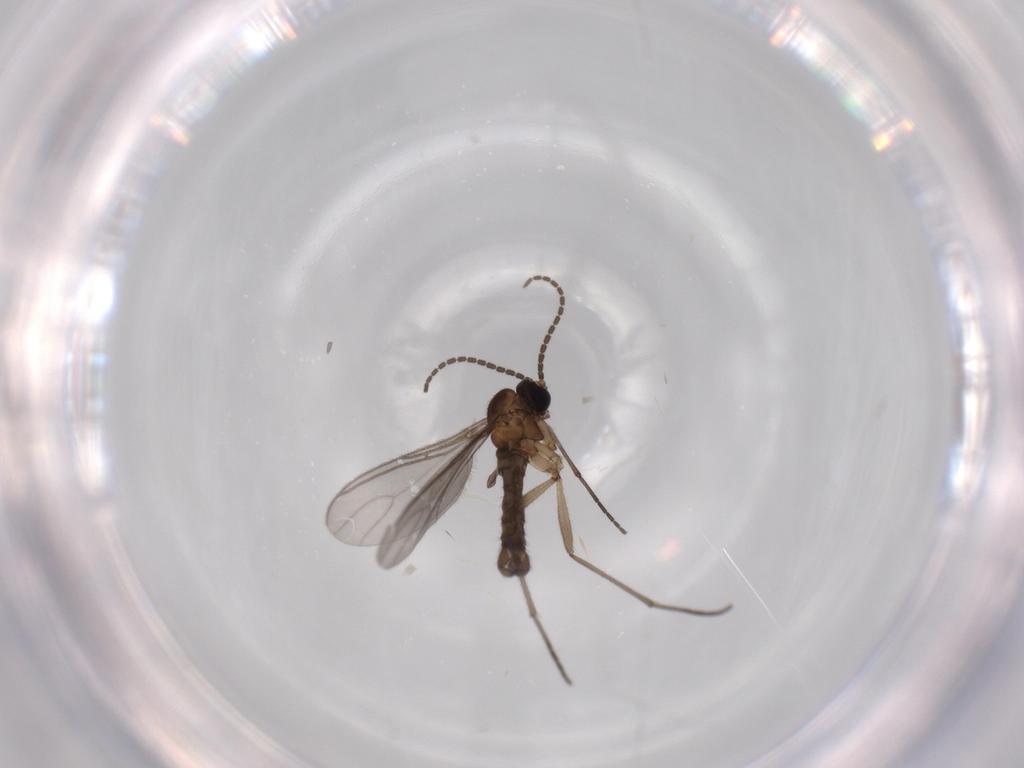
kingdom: Animalia
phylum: Arthropoda
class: Insecta
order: Diptera
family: Sciaridae
